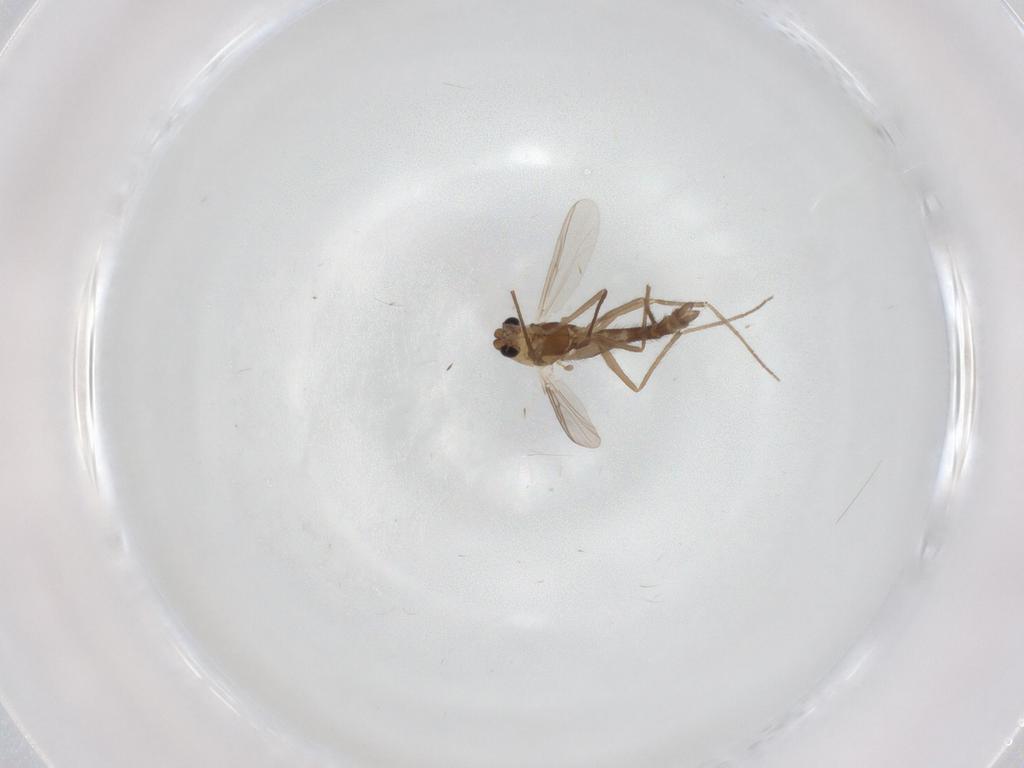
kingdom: Animalia
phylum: Arthropoda
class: Insecta
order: Diptera
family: Chironomidae
